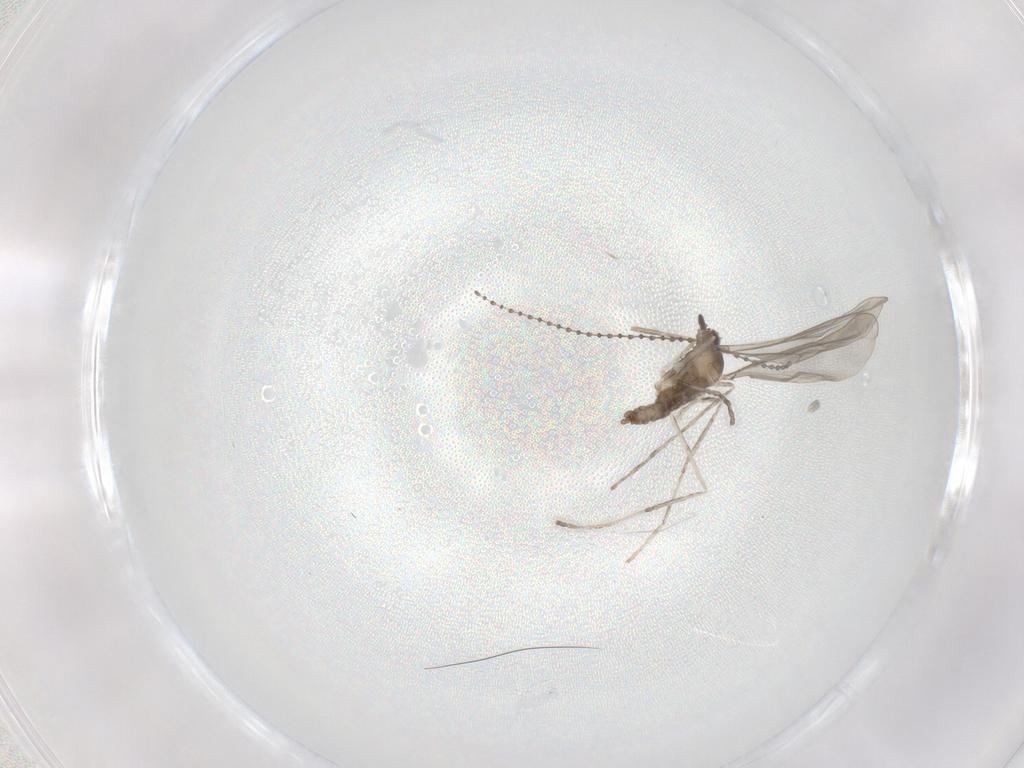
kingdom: Animalia
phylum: Arthropoda
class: Insecta
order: Diptera
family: Cecidomyiidae
